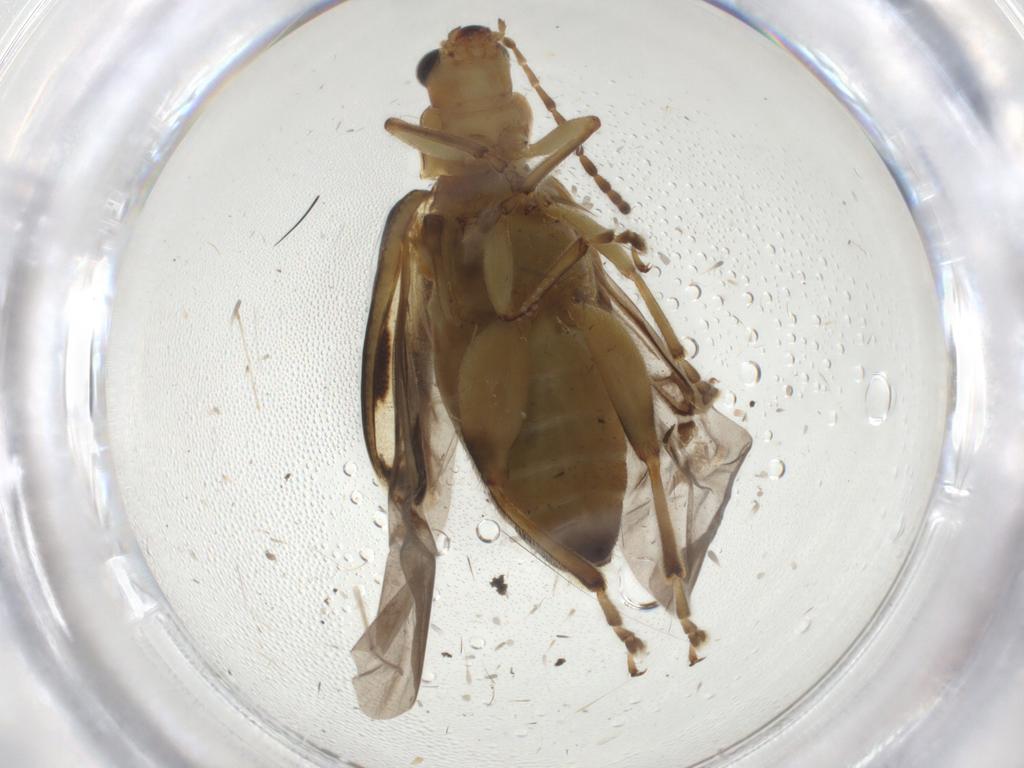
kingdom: Animalia
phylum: Arthropoda
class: Insecta
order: Coleoptera
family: Chrysomelidae
